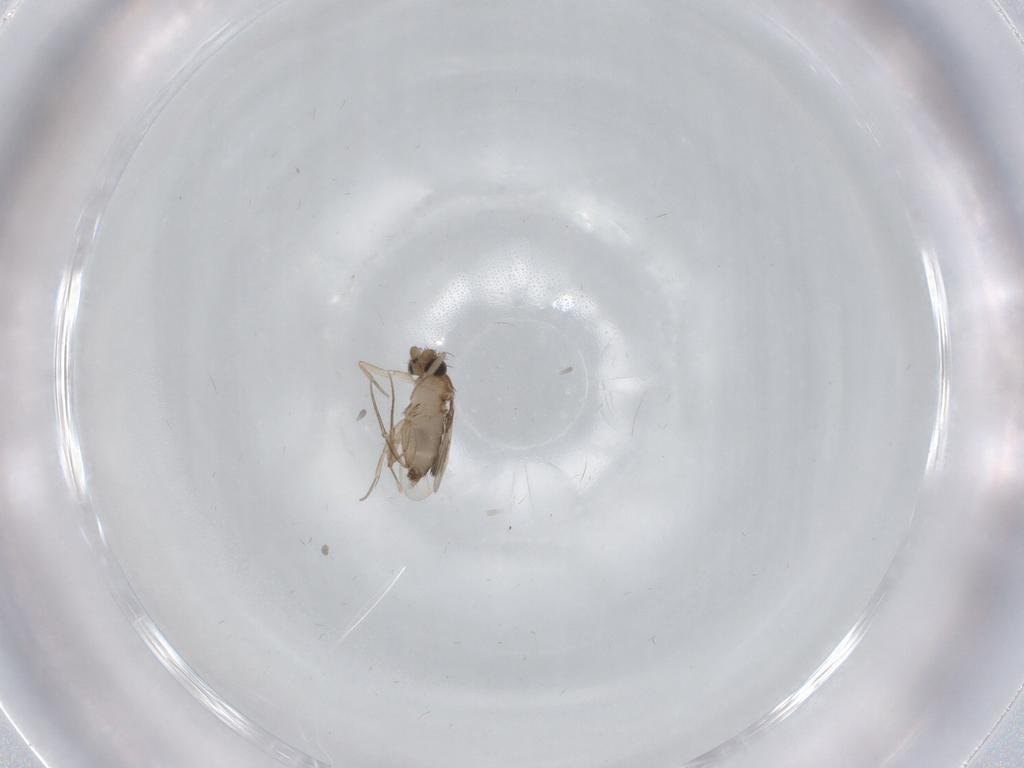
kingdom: Animalia
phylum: Arthropoda
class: Insecta
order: Diptera
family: Phoridae
